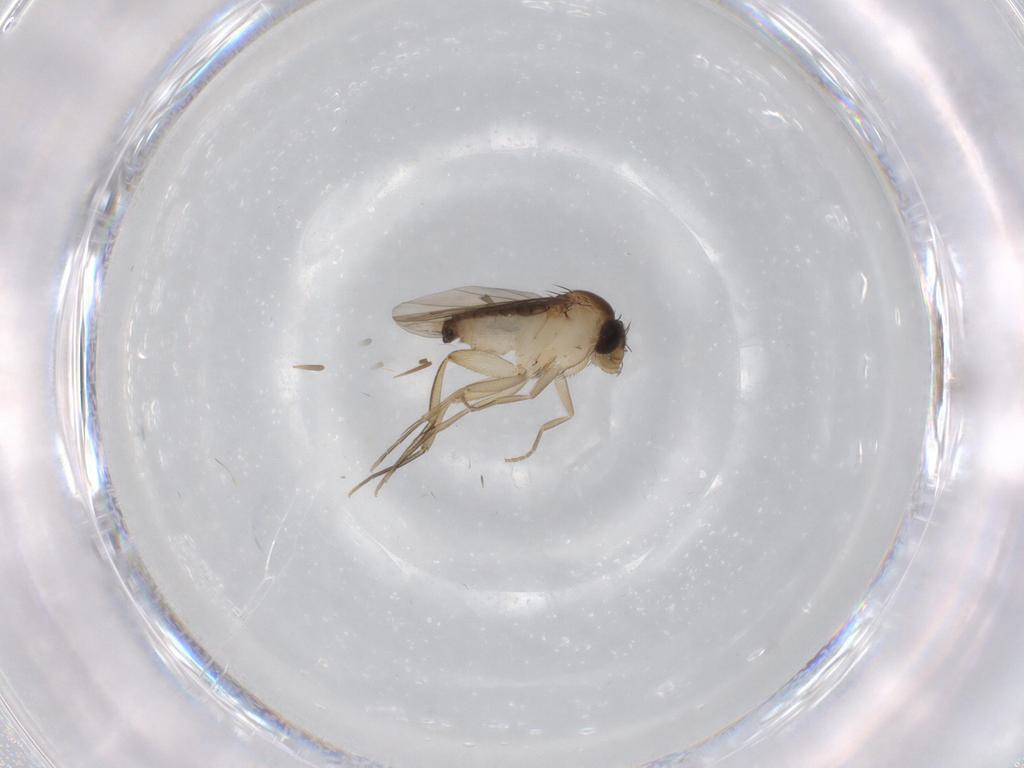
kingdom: Animalia
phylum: Arthropoda
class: Insecta
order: Diptera
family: Phoridae
